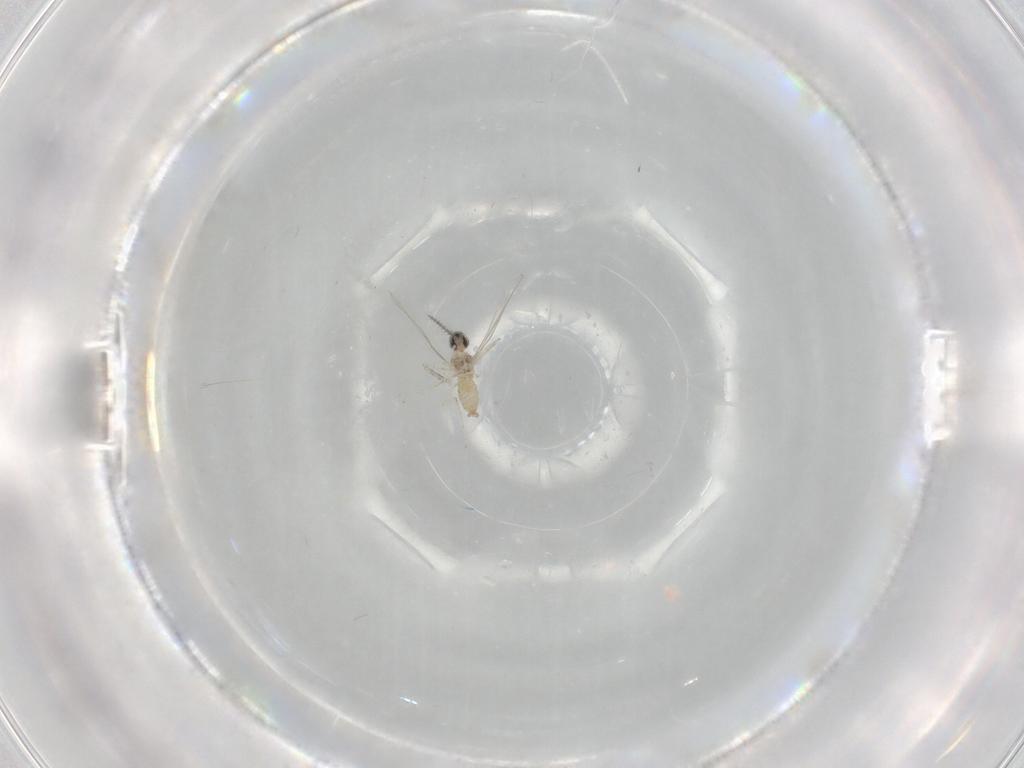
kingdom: Animalia
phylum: Arthropoda
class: Insecta
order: Diptera
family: Cecidomyiidae
